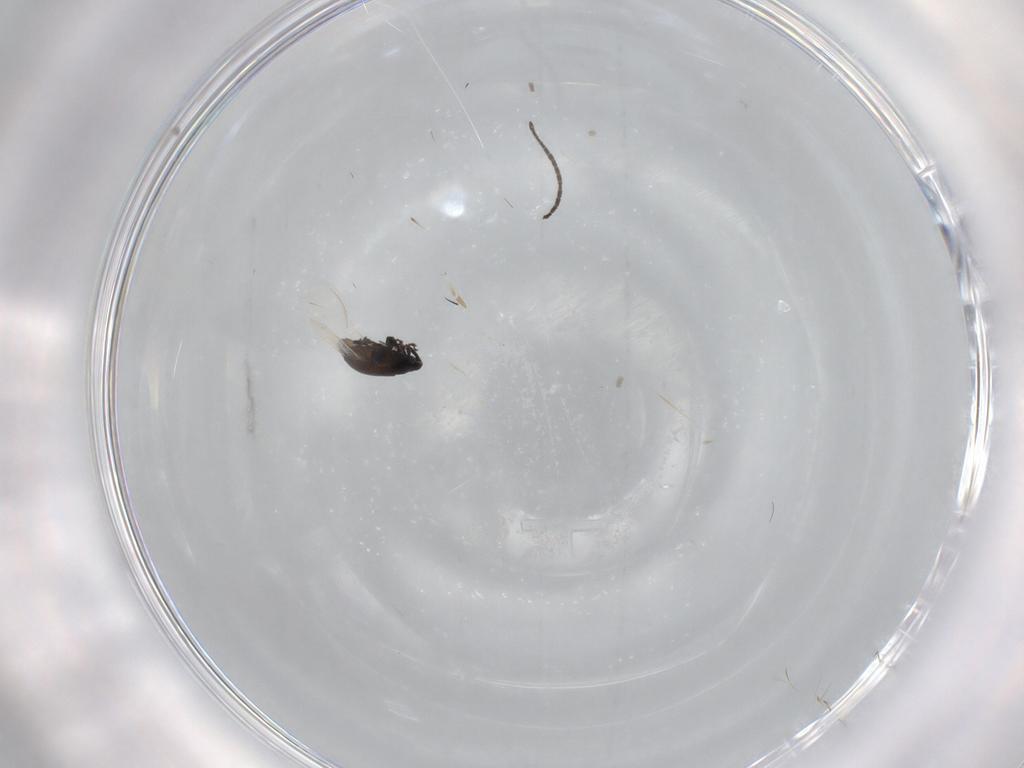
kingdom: Animalia
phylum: Arthropoda
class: Insecta
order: Coleoptera
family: Curculionidae
